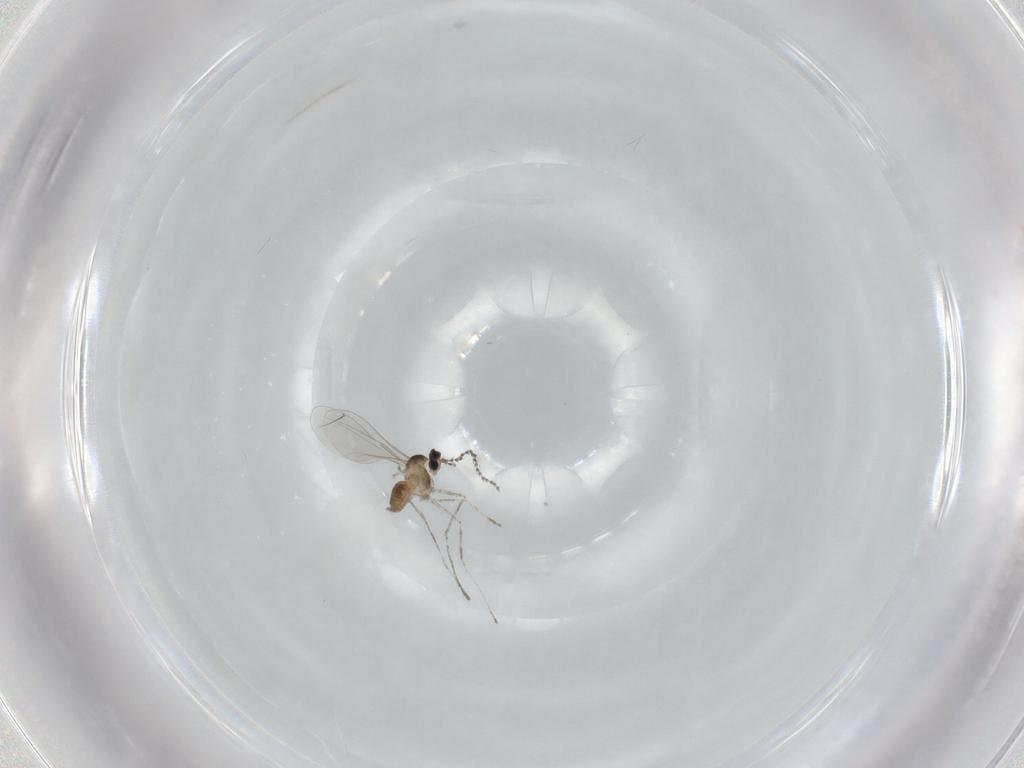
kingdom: Animalia
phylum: Arthropoda
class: Insecta
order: Diptera
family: Cecidomyiidae
